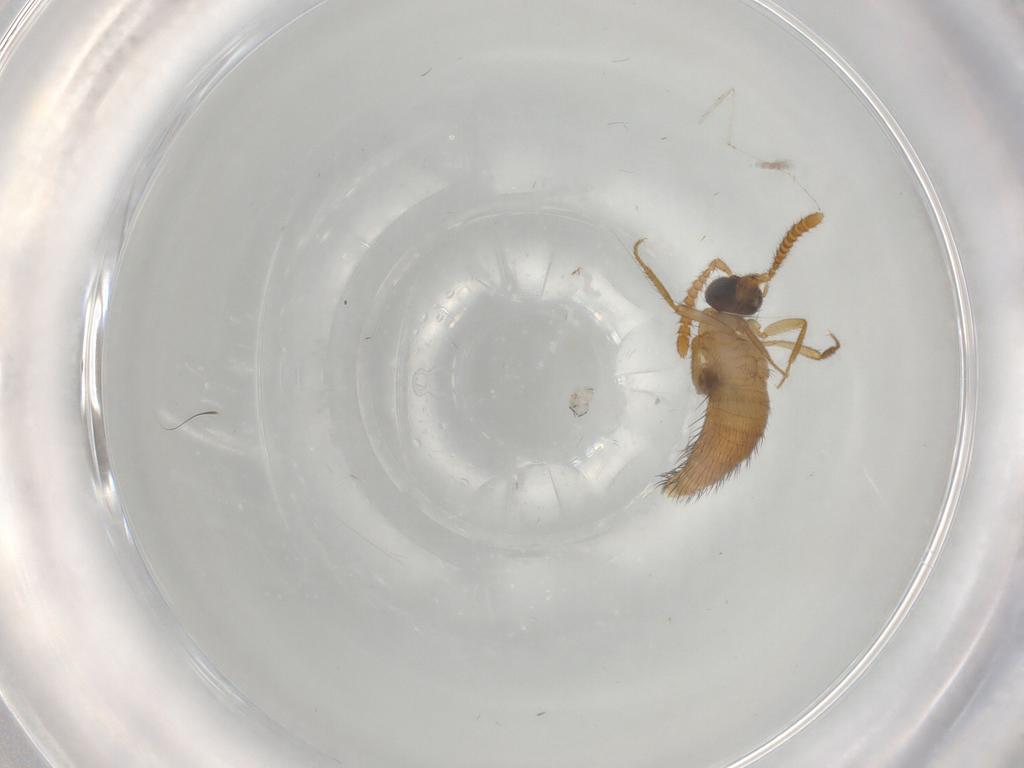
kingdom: Animalia
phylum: Arthropoda
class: Insecta
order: Coleoptera
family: Staphylinidae
